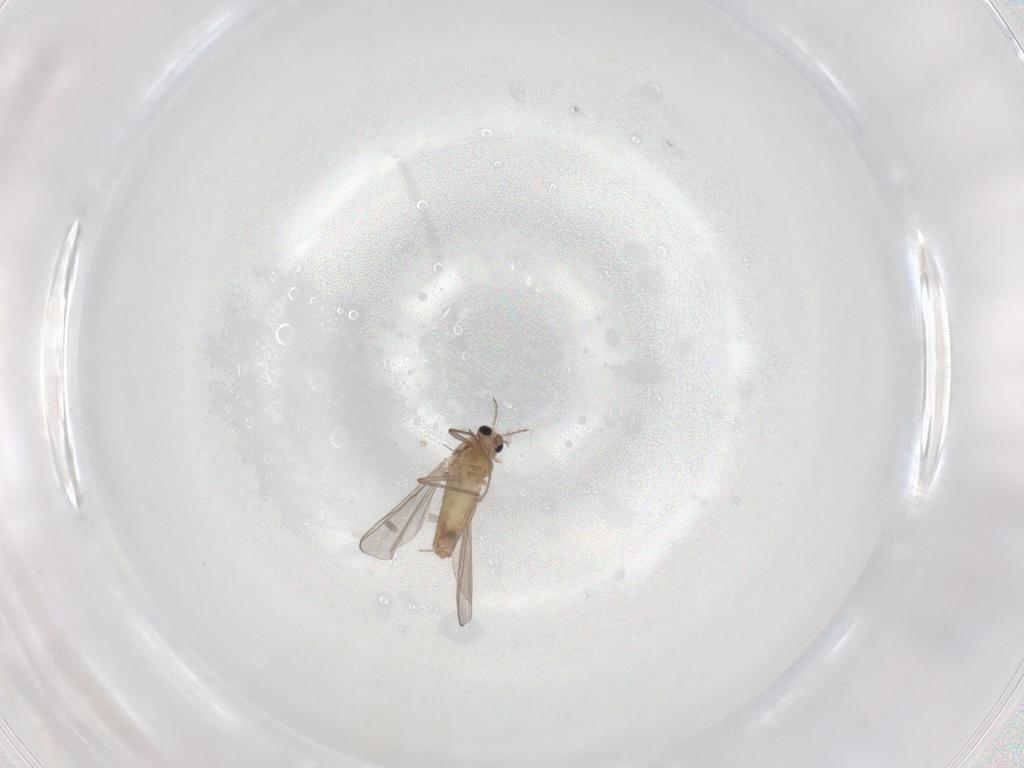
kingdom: Animalia
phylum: Arthropoda
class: Insecta
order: Diptera
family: Chironomidae
